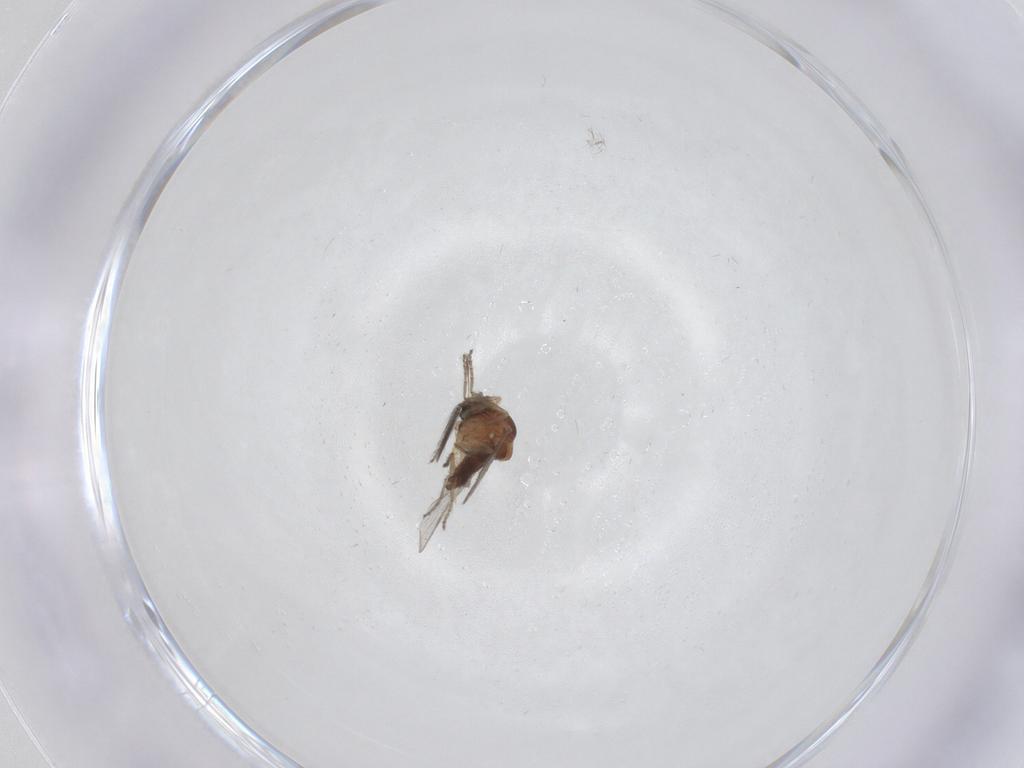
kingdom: Animalia
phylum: Arthropoda
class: Insecta
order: Diptera
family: Ceratopogonidae
